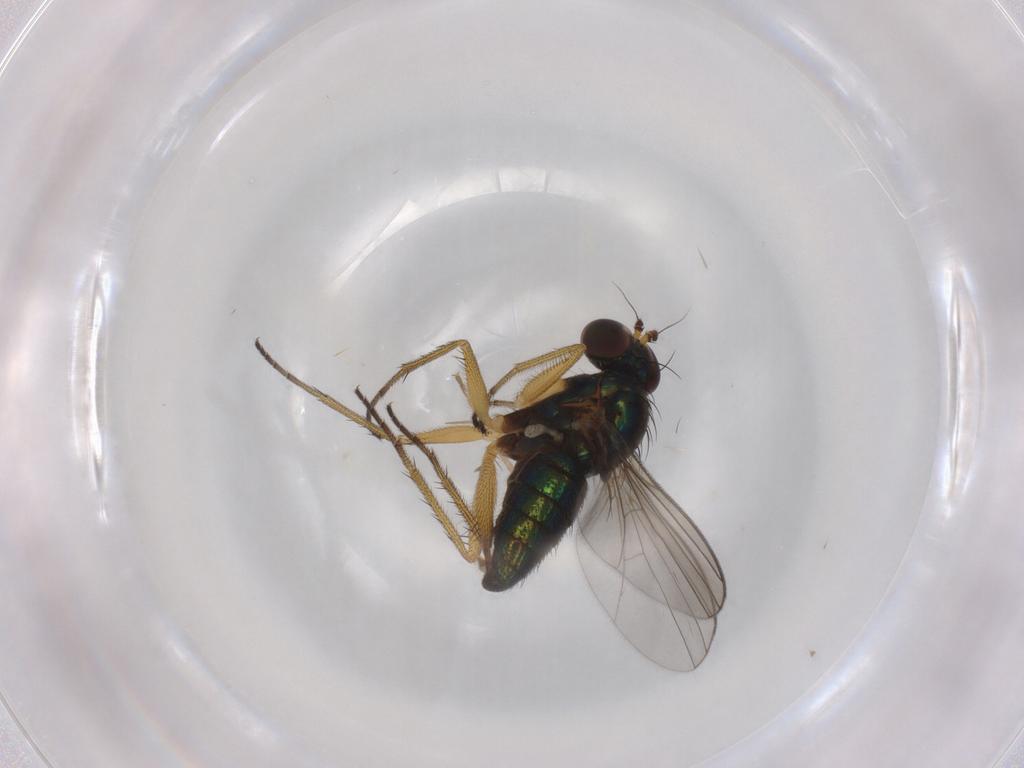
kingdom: Animalia
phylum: Arthropoda
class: Insecta
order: Diptera
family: Dolichopodidae
